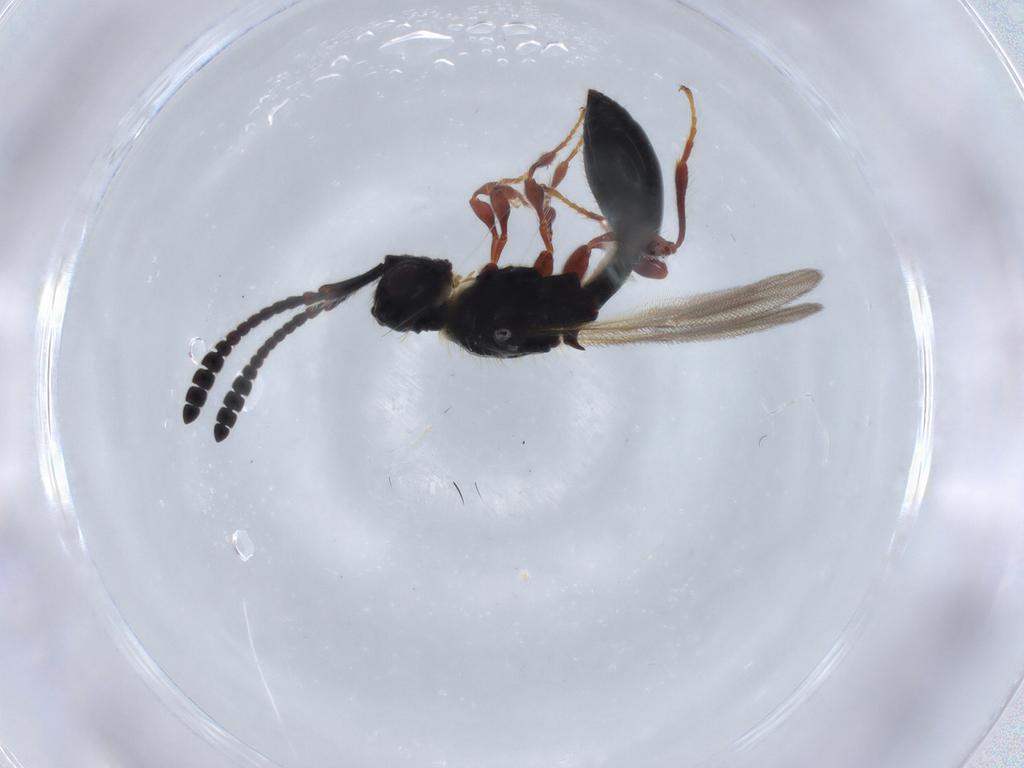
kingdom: Animalia
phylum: Arthropoda
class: Insecta
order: Hymenoptera
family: Diapriidae
